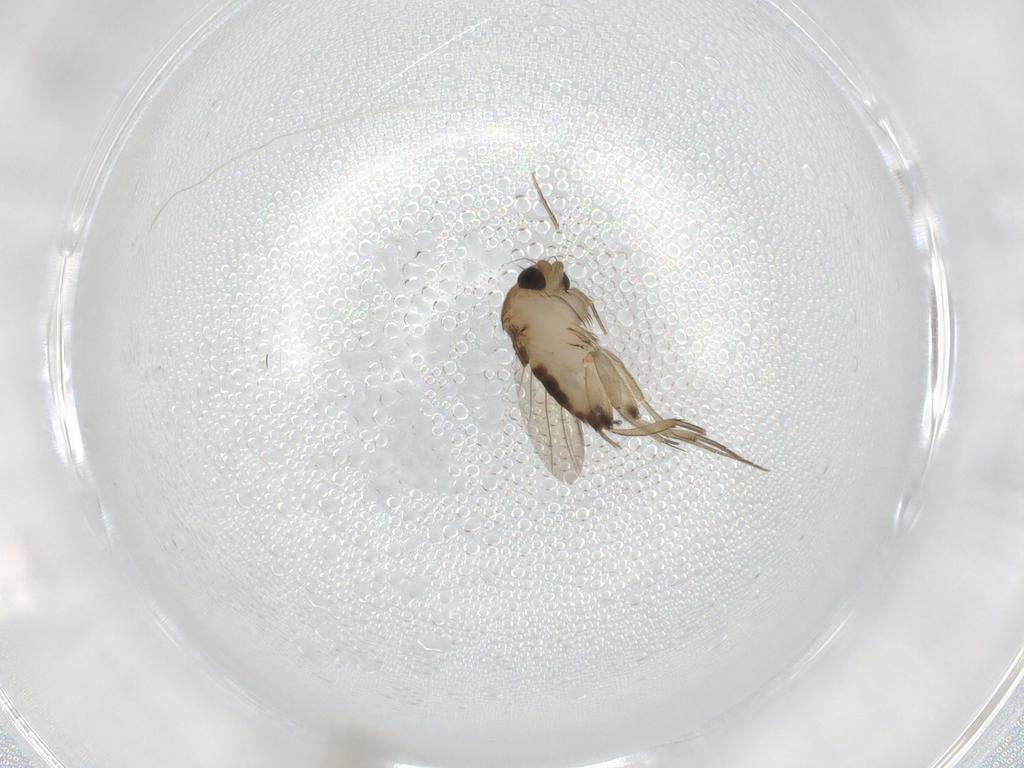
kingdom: Animalia
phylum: Arthropoda
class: Insecta
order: Diptera
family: Phoridae
